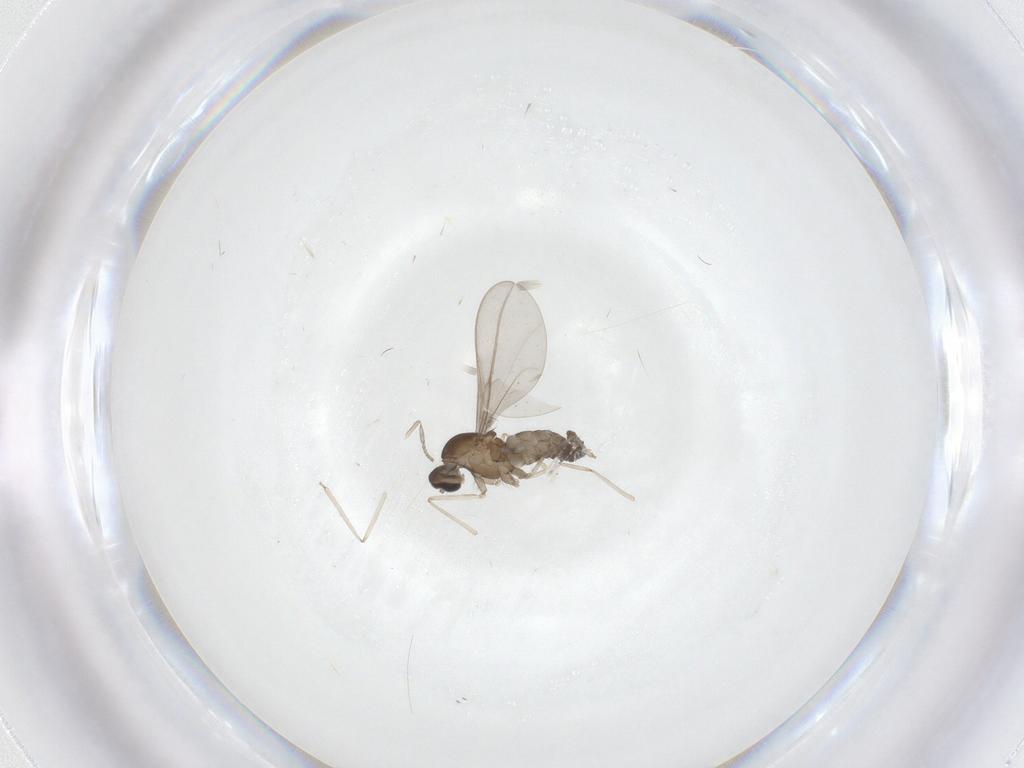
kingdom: Animalia
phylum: Arthropoda
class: Insecta
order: Diptera
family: Cecidomyiidae
